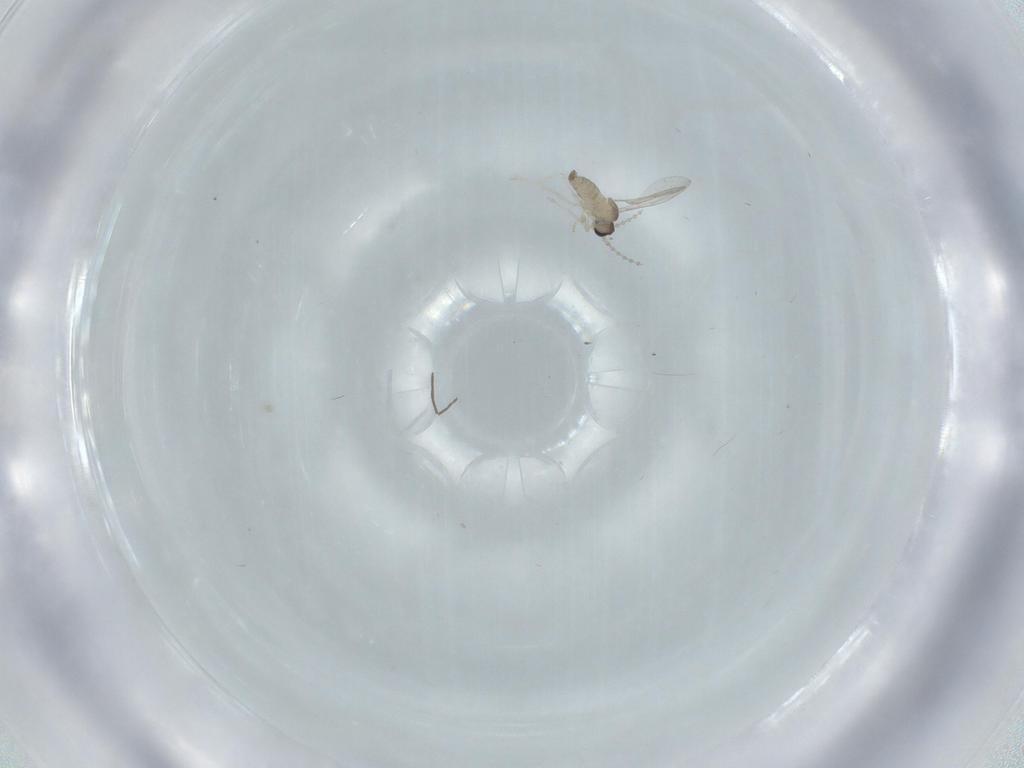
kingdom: Animalia
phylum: Arthropoda
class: Insecta
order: Diptera
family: Cecidomyiidae
